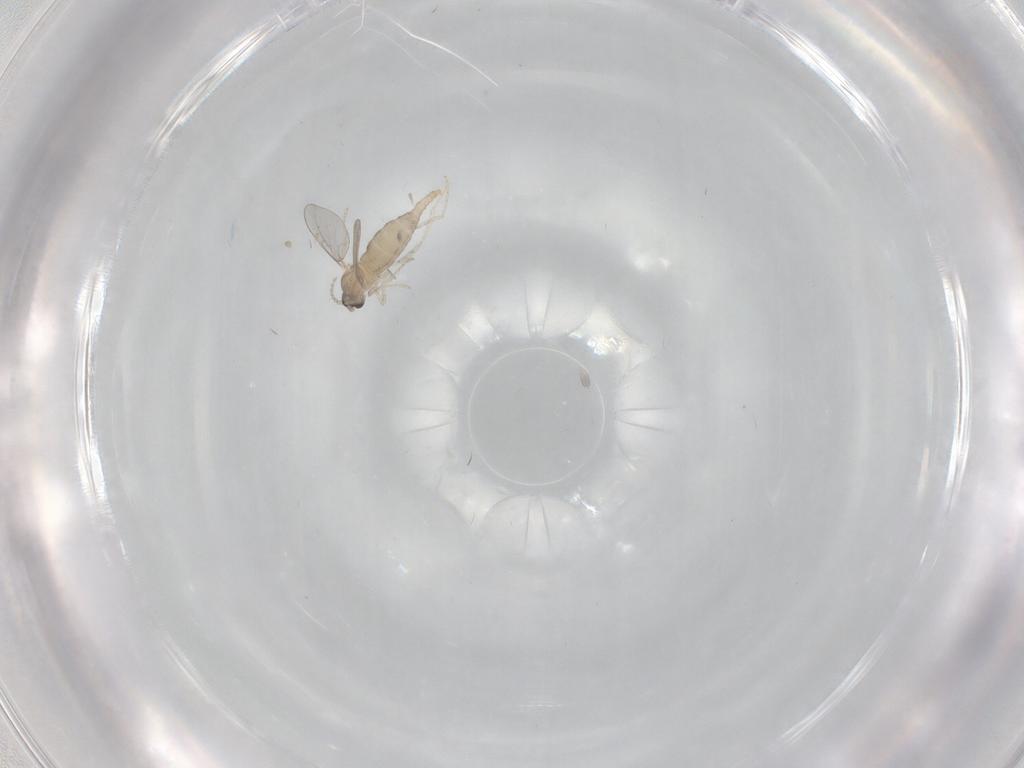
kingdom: Animalia
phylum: Arthropoda
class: Insecta
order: Diptera
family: Cecidomyiidae
